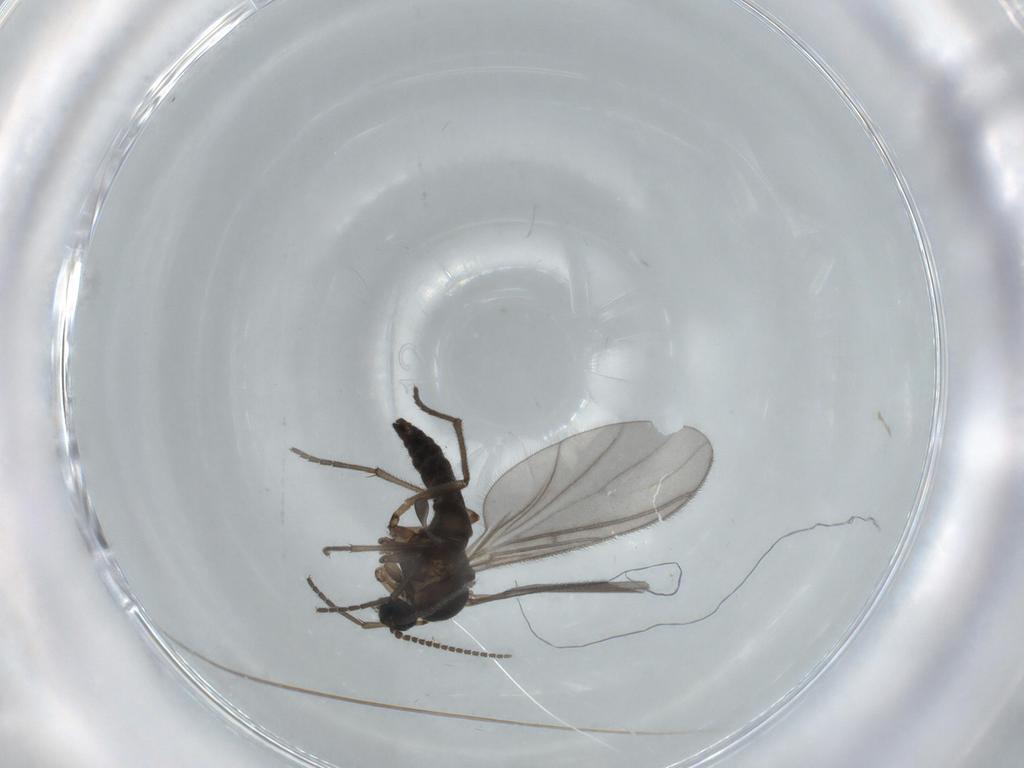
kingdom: Animalia
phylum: Arthropoda
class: Insecta
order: Diptera
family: Sciaridae
